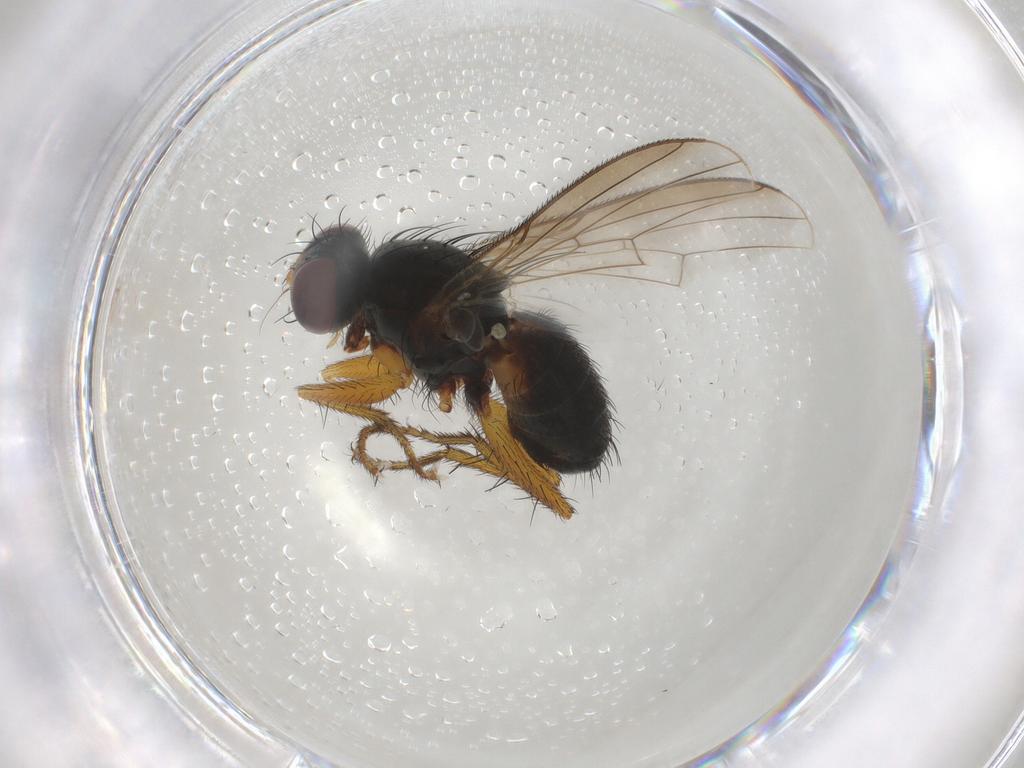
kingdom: Animalia
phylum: Arthropoda
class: Insecta
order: Diptera
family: Muscidae
